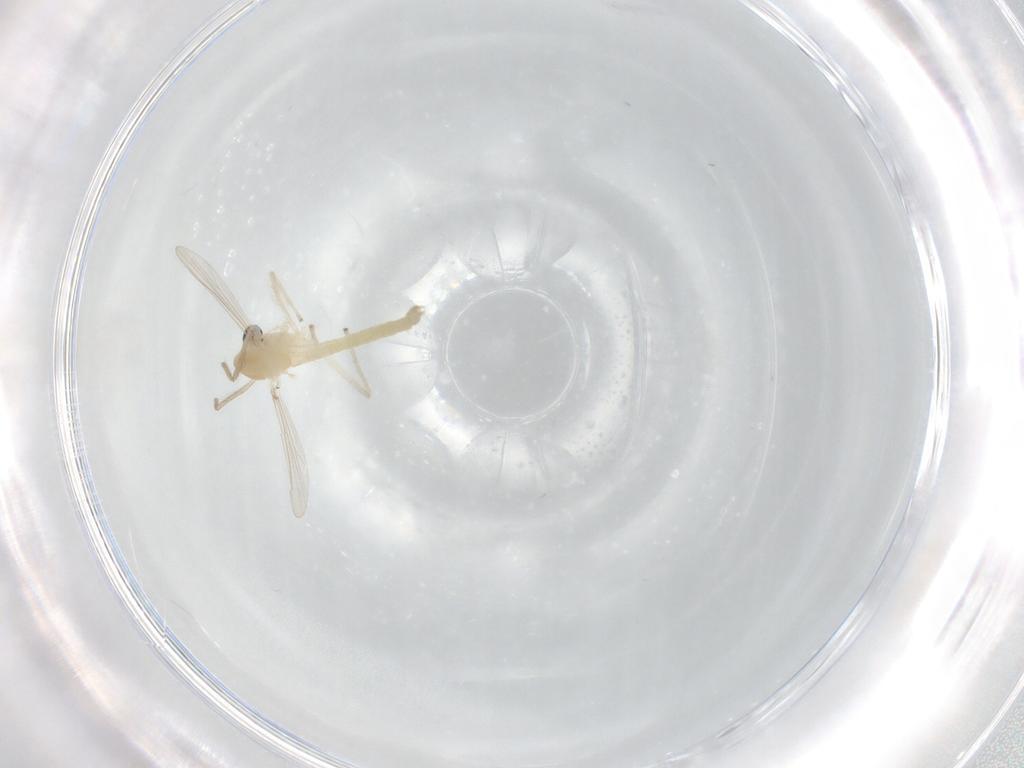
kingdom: Animalia
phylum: Arthropoda
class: Insecta
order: Diptera
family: Chironomidae
